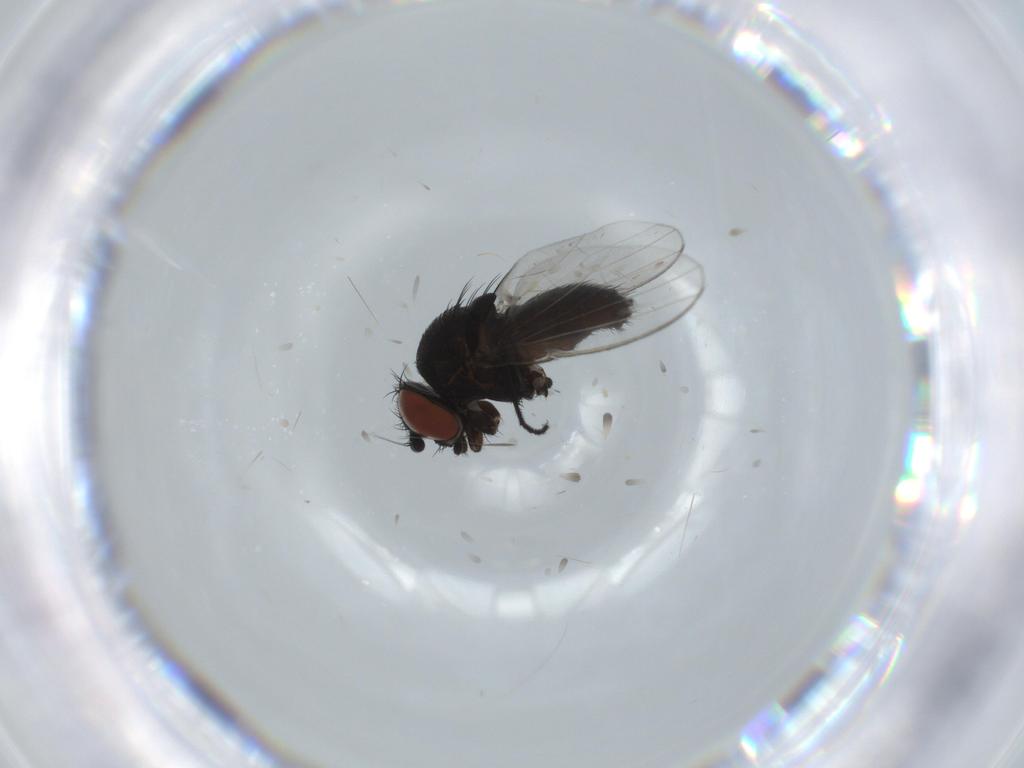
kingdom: Animalia
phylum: Arthropoda
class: Insecta
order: Diptera
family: Milichiidae
